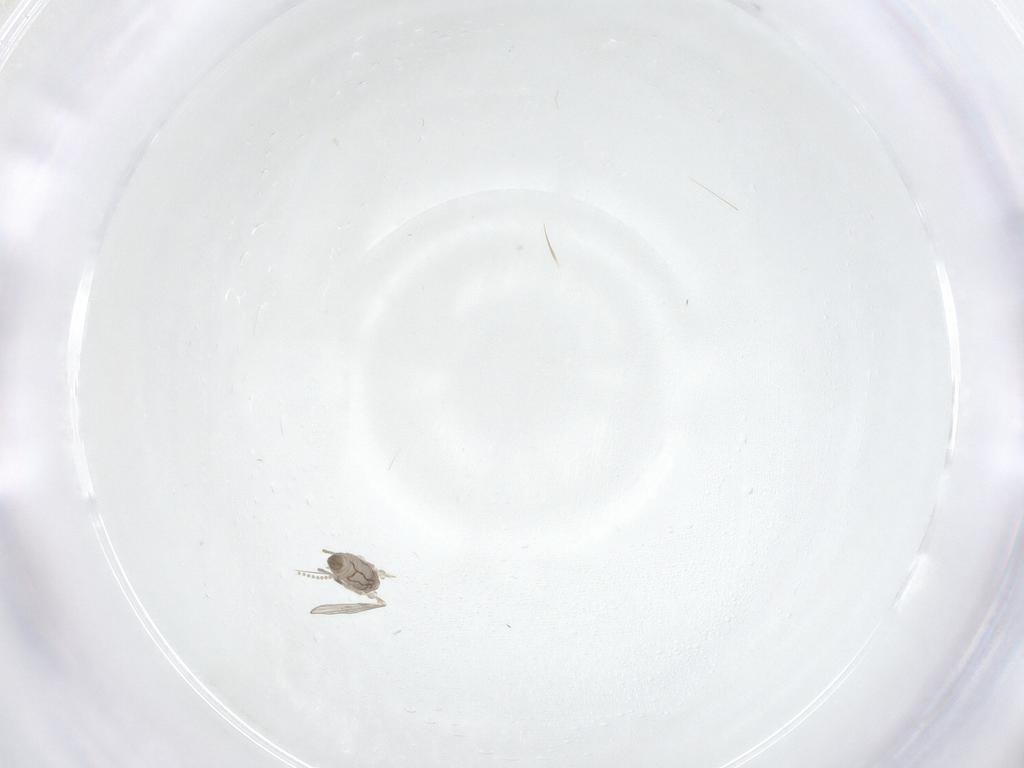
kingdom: Animalia
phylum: Arthropoda
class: Insecta
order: Diptera
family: Psychodidae
